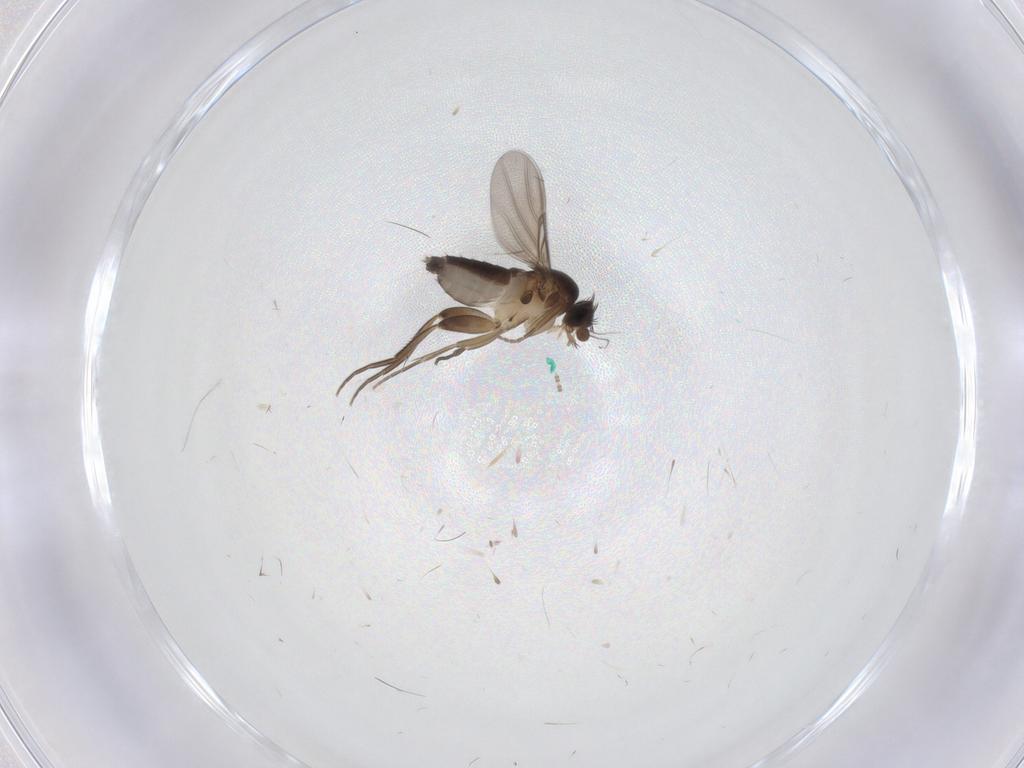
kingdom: Animalia
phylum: Arthropoda
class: Insecta
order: Diptera
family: Phoridae
